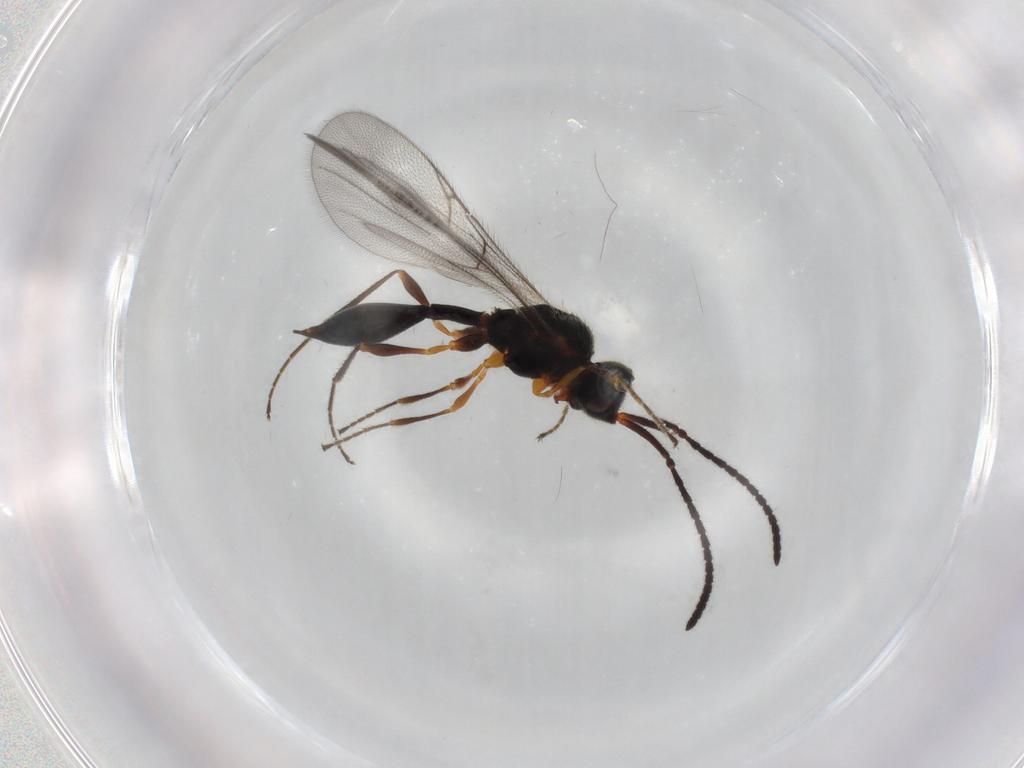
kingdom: Animalia
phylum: Arthropoda
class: Insecta
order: Hymenoptera
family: Diapriidae
